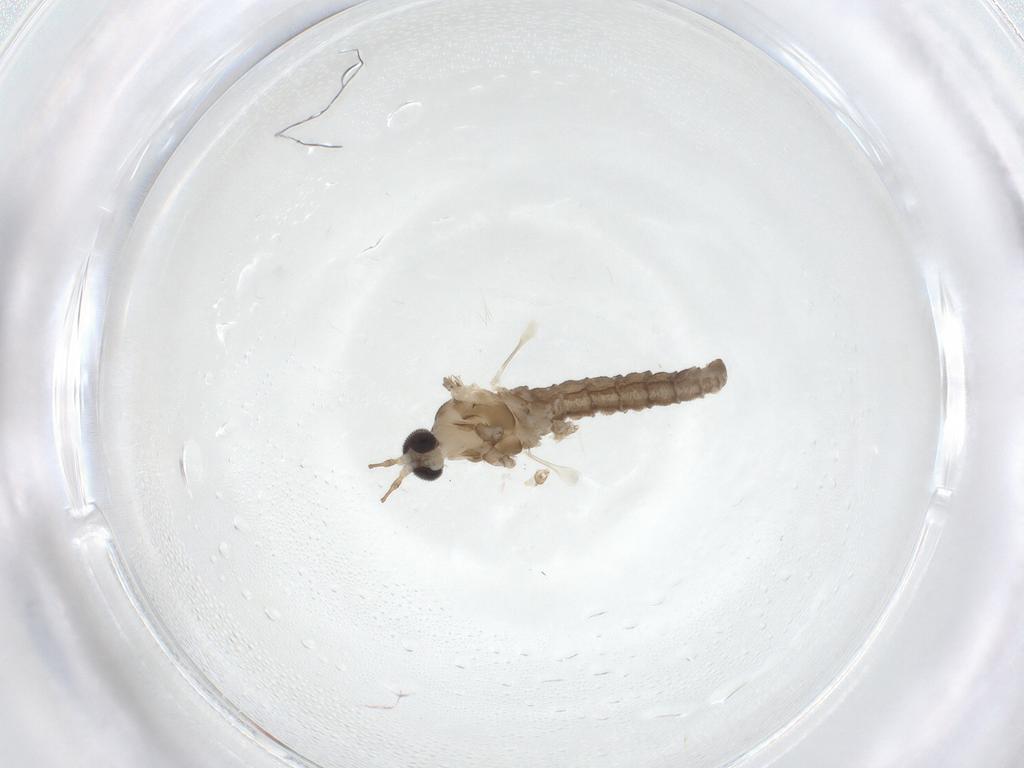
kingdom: Animalia
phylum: Arthropoda
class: Insecta
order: Diptera
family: Cecidomyiidae
